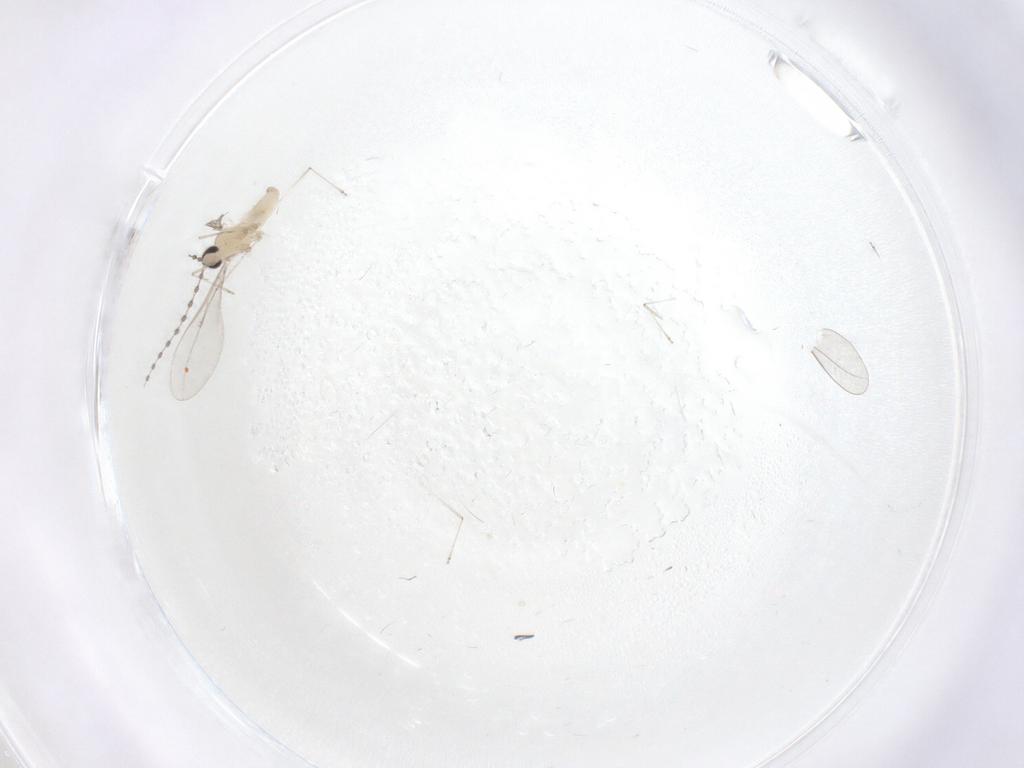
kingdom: Animalia
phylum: Arthropoda
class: Insecta
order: Diptera
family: Cecidomyiidae
